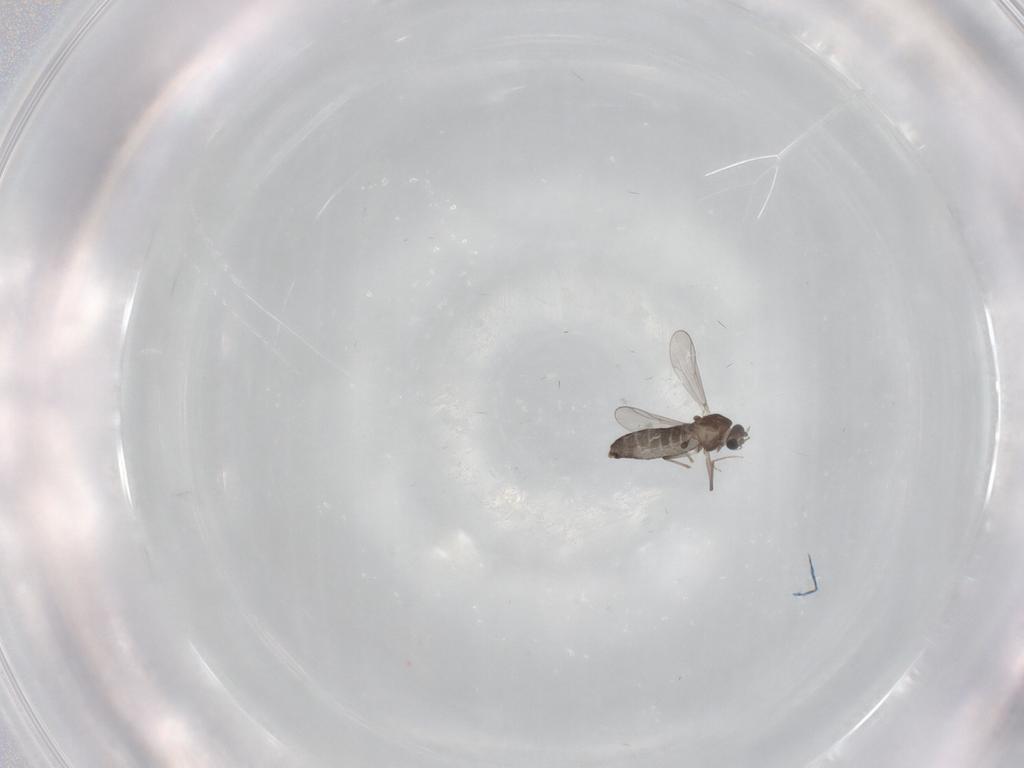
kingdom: Animalia
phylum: Arthropoda
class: Insecta
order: Diptera
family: Chironomidae
